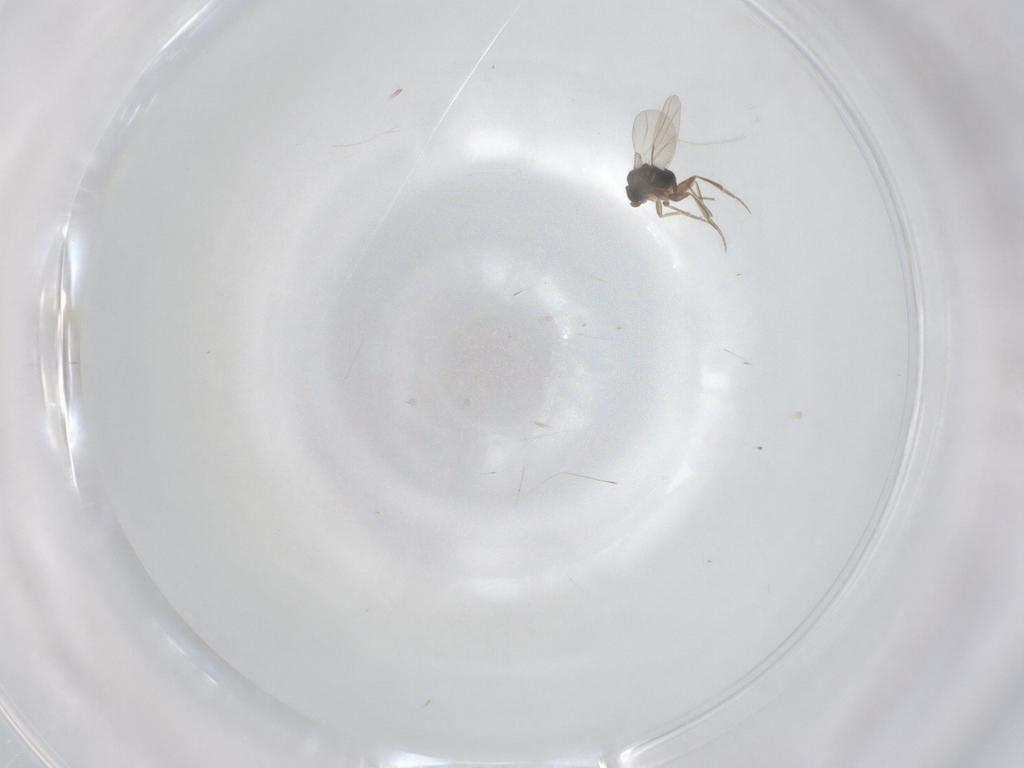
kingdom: Animalia
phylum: Arthropoda
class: Insecta
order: Diptera
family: Phoridae
